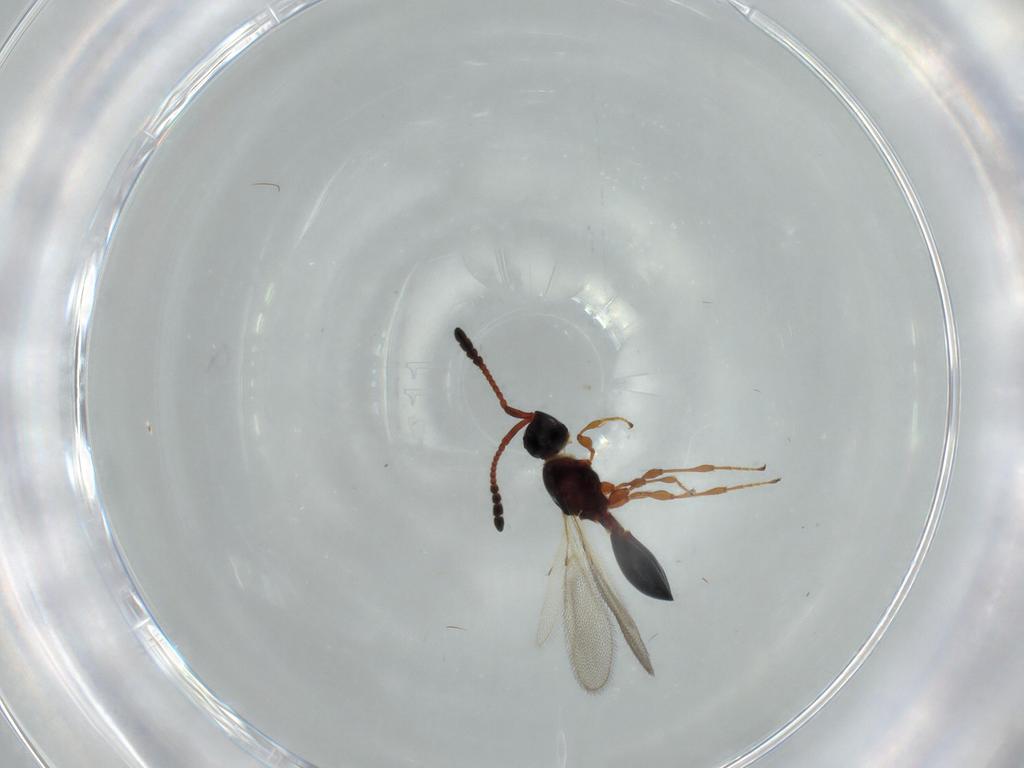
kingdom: Animalia
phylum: Arthropoda
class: Insecta
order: Hymenoptera
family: Diapriidae
